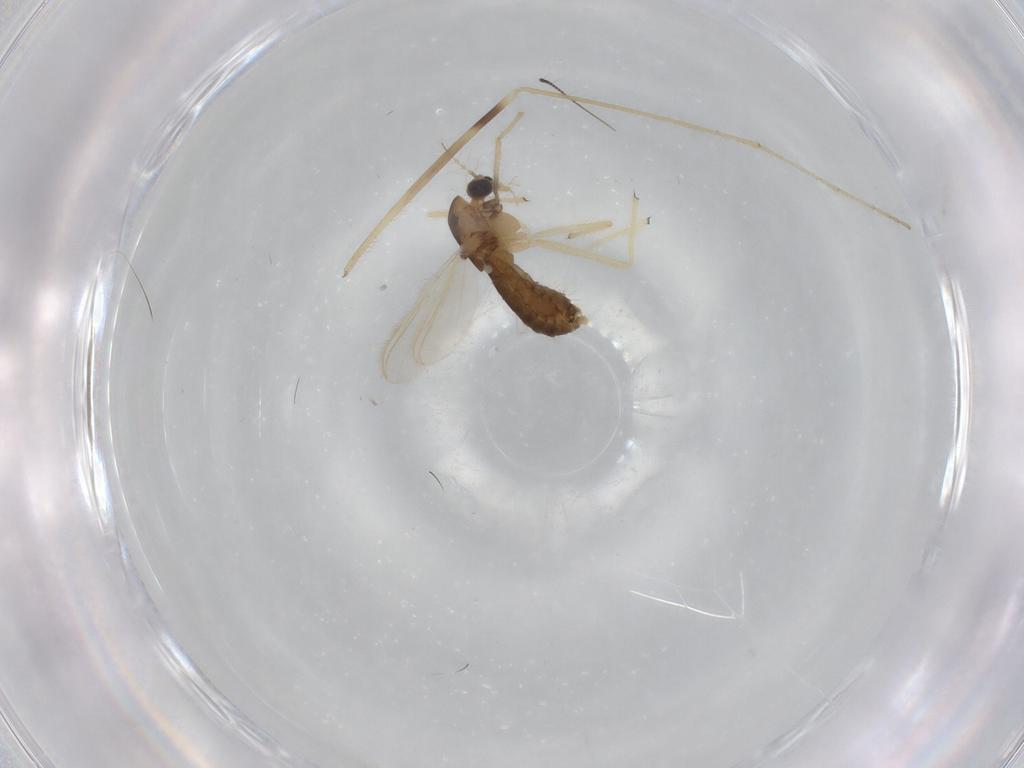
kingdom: Animalia
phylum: Arthropoda
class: Insecta
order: Diptera
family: Chironomidae
